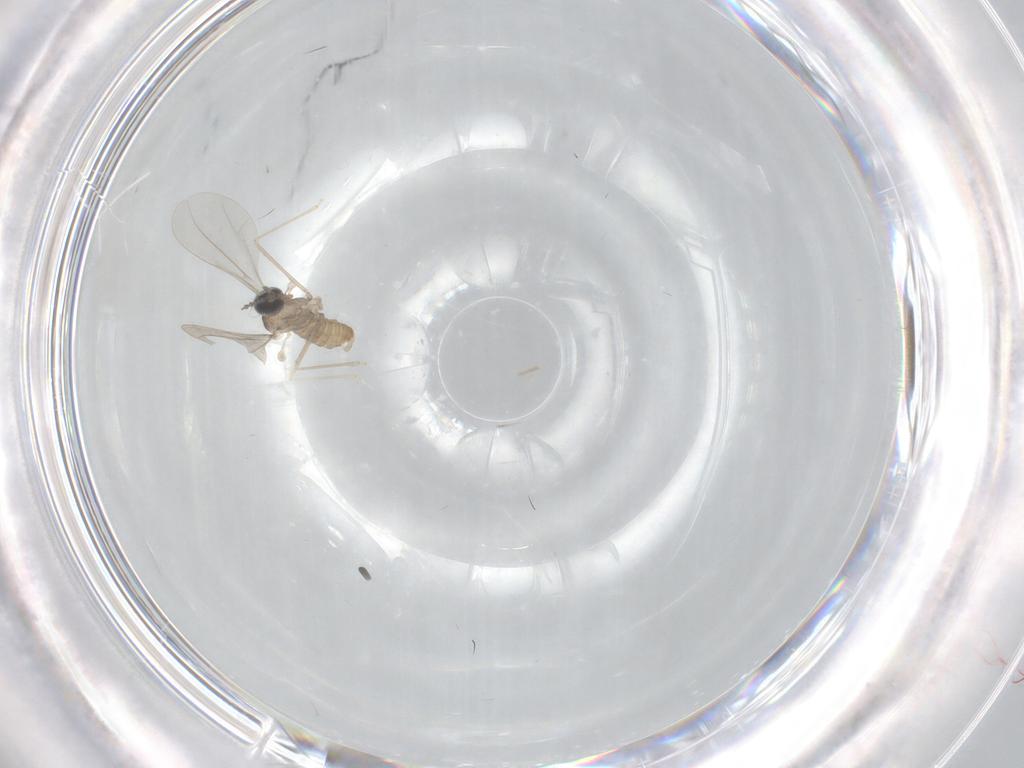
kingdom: Animalia
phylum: Arthropoda
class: Insecta
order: Diptera
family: Cecidomyiidae
